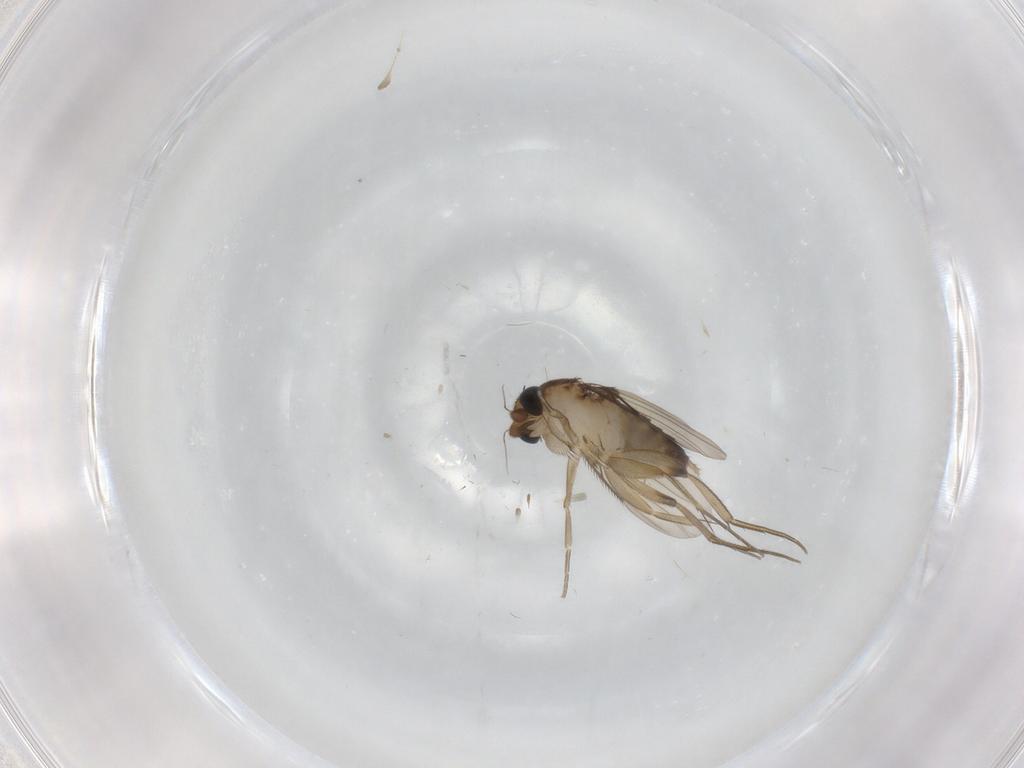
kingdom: Animalia
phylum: Arthropoda
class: Insecta
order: Diptera
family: Phoridae
